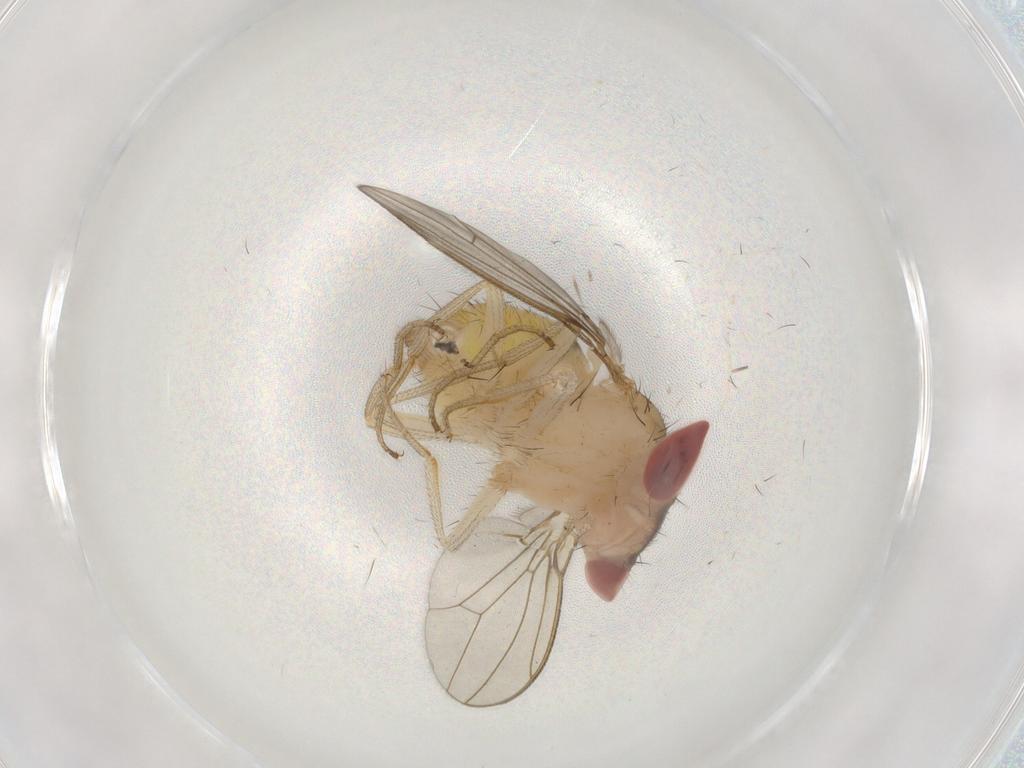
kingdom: Animalia
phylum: Arthropoda
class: Insecta
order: Diptera
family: Drosophilidae
